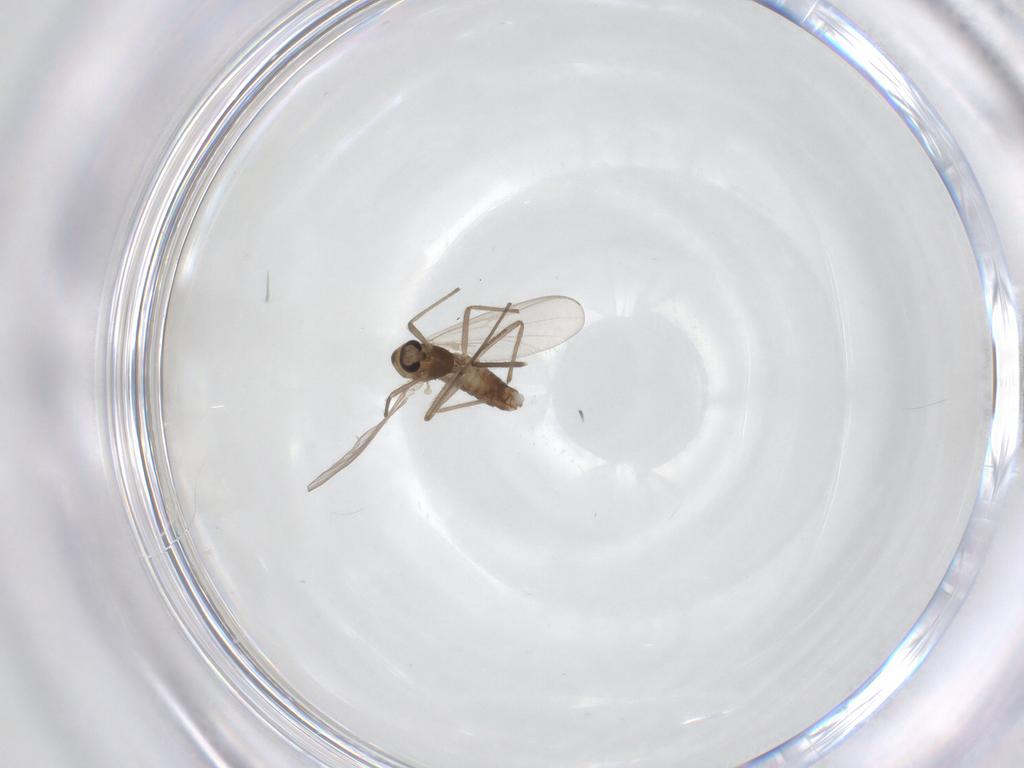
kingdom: Animalia
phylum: Arthropoda
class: Insecta
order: Diptera
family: Chironomidae
